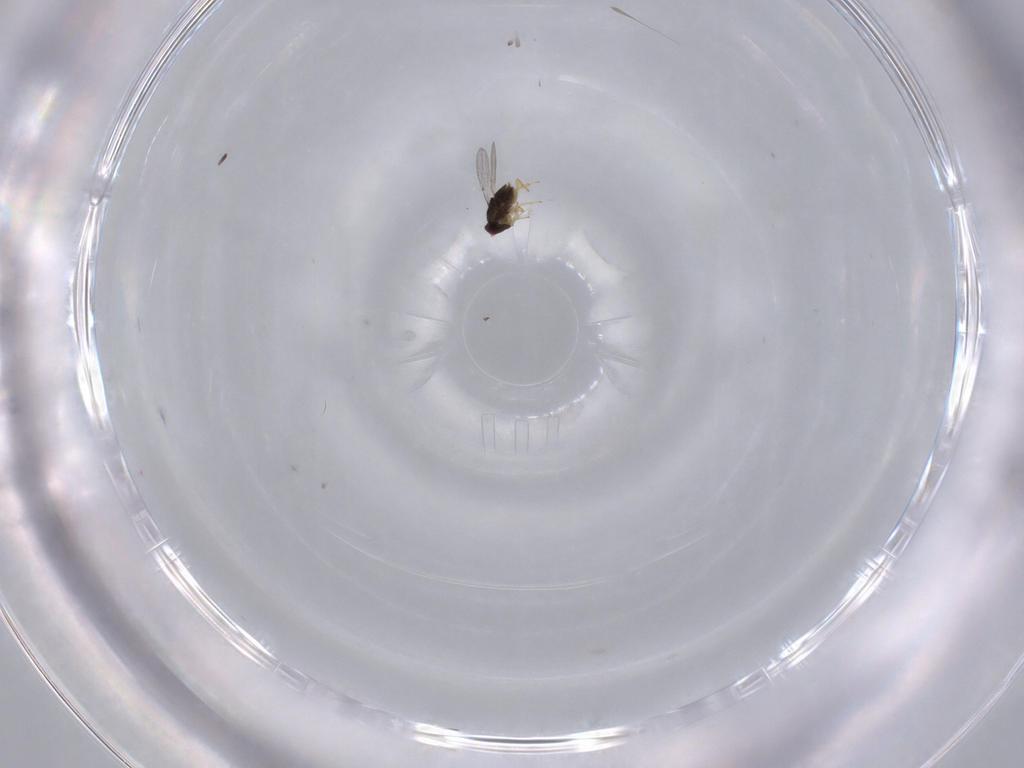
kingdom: Animalia
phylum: Arthropoda
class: Insecta
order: Hymenoptera
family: Encyrtidae
